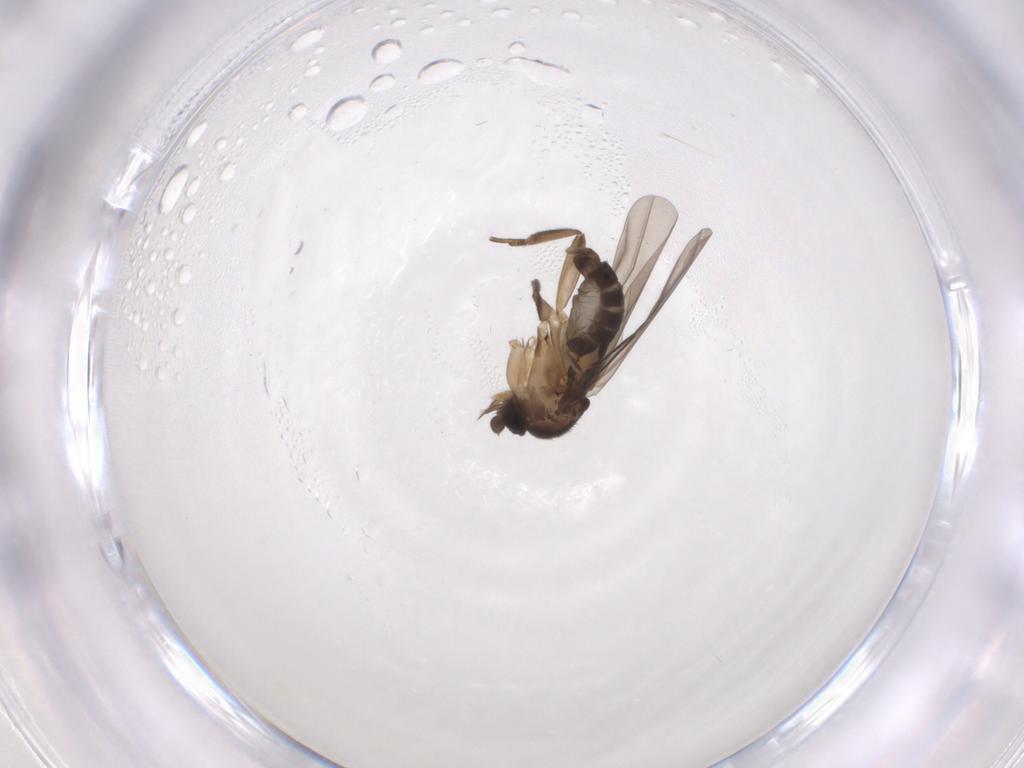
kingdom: Animalia
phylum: Arthropoda
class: Insecta
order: Diptera
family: Phoridae
